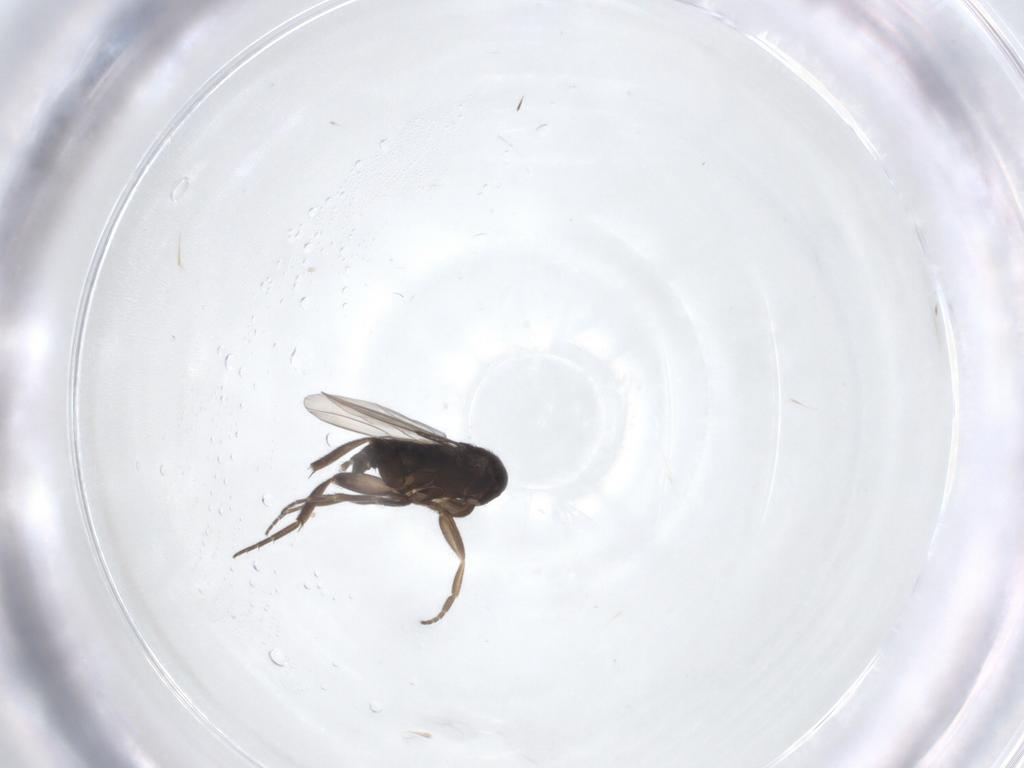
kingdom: Animalia
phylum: Arthropoda
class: Insecta
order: Diptera
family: Phoridae
